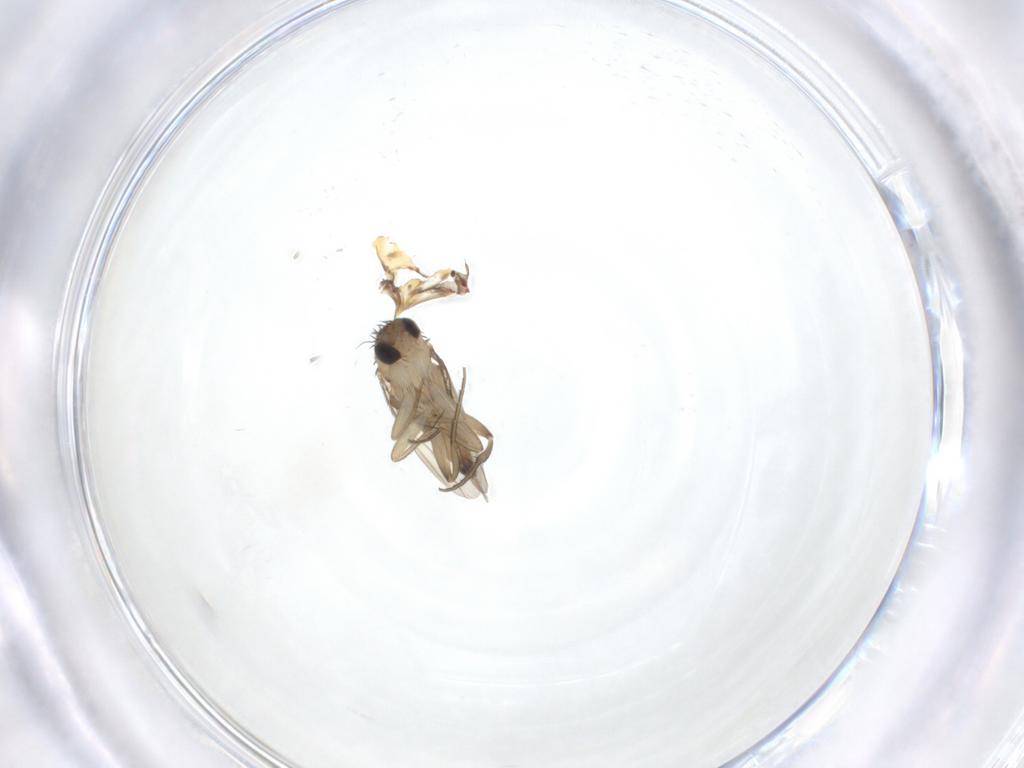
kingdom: Animalia
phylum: Arthropoda
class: Insecta
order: Diptera
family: Phoridae
